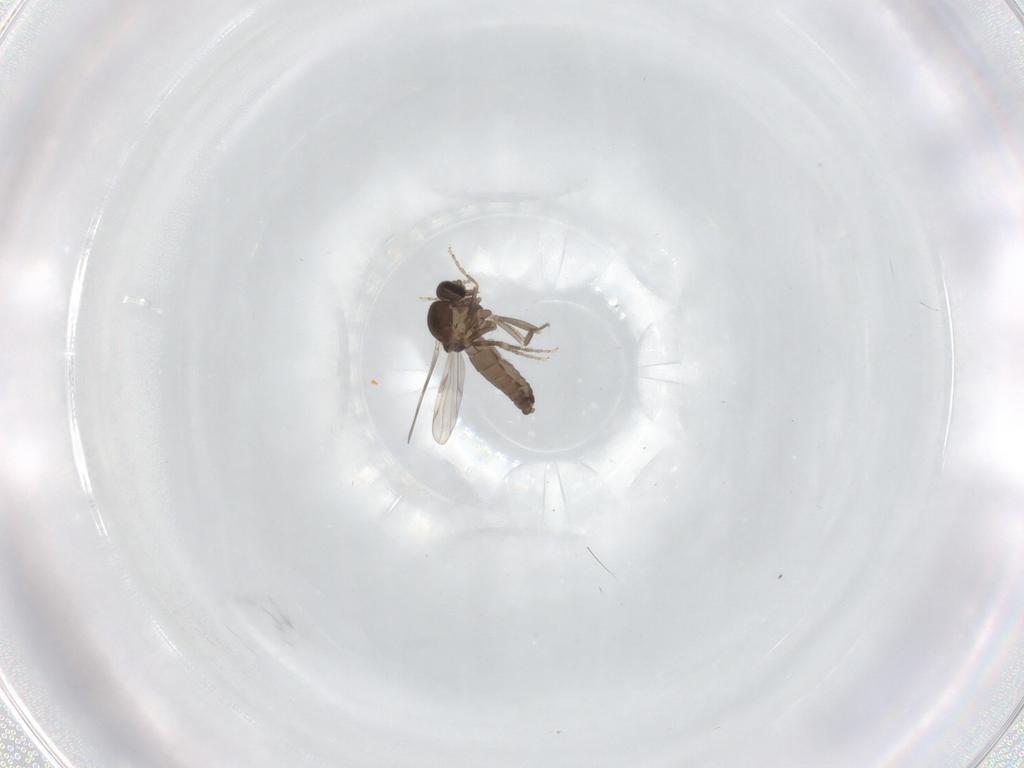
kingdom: Animalia
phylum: Arthropoda
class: Insecta
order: Diptera
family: Ceratopogonidae
